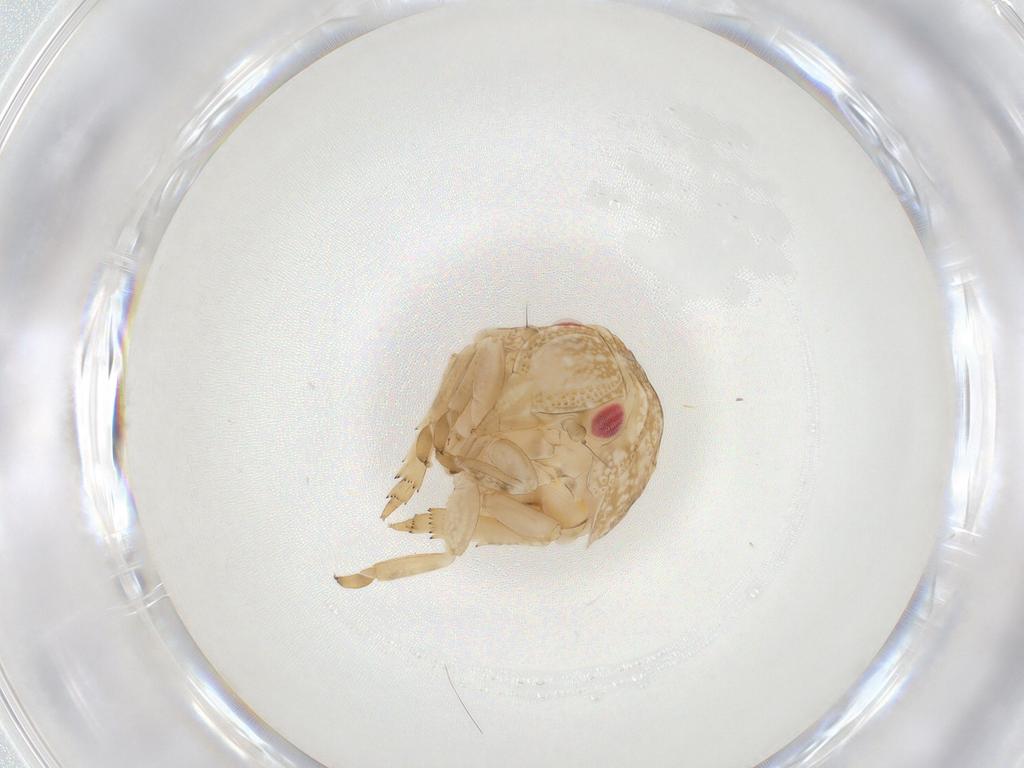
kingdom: Animalia
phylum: Arthropoda
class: Insecta
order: Hemiptera
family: Acanaloniidae
